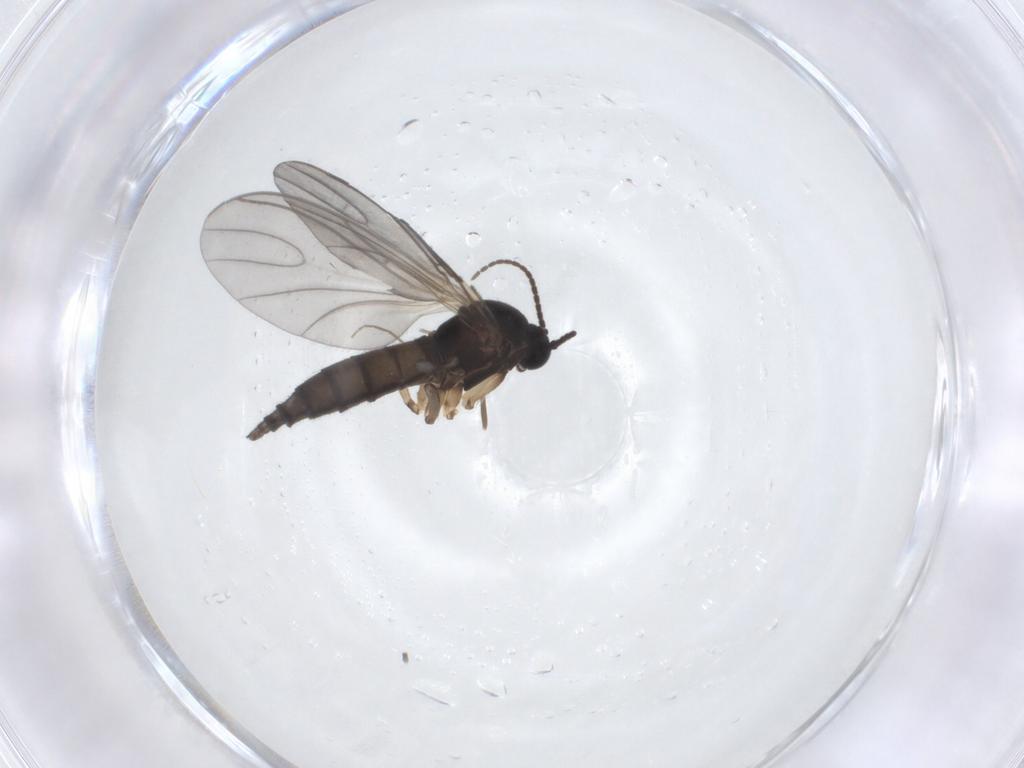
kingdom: Animalia
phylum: Arthropoda
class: Insecta
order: Diptera
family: Sciaridae
